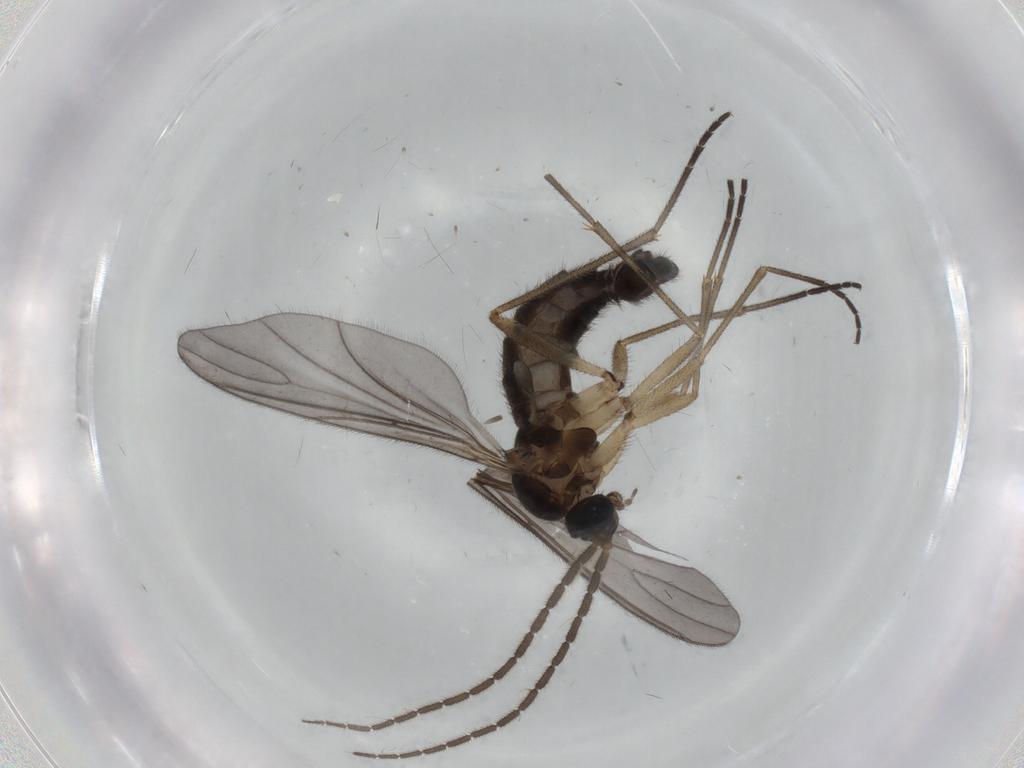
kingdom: Animalia
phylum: Arthropoda
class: Insecta
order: Diptera
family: Sciaridae
